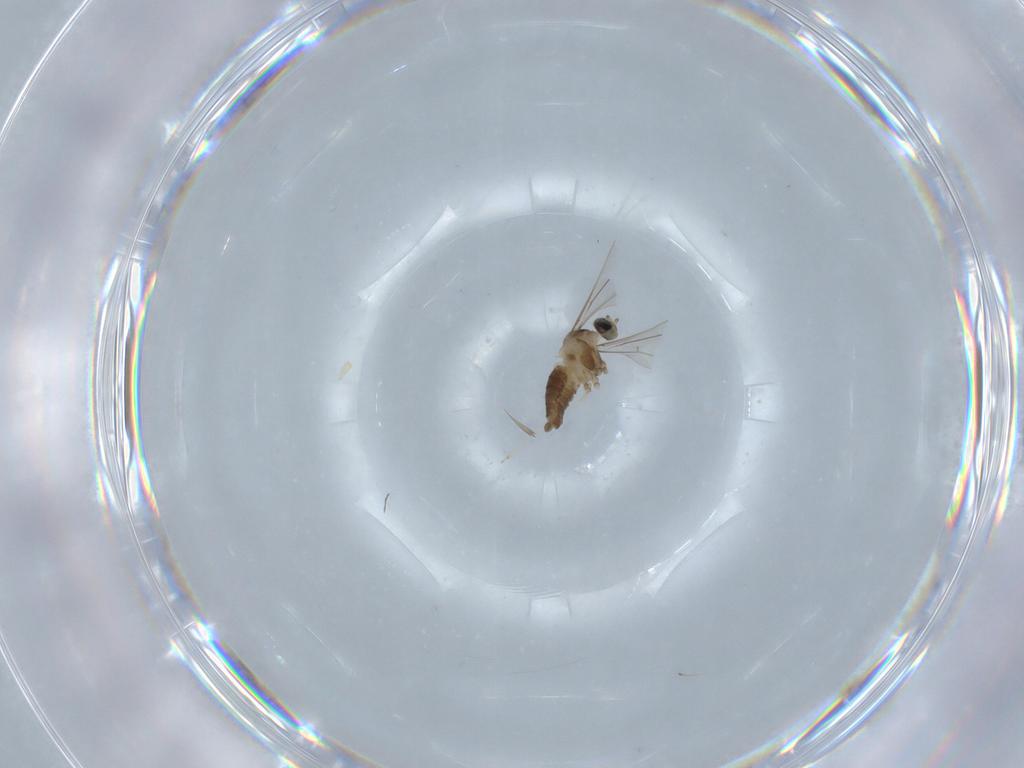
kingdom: Animalia
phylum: Arthropoda
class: Insecta
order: Diptera
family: Cecidomyiidae
